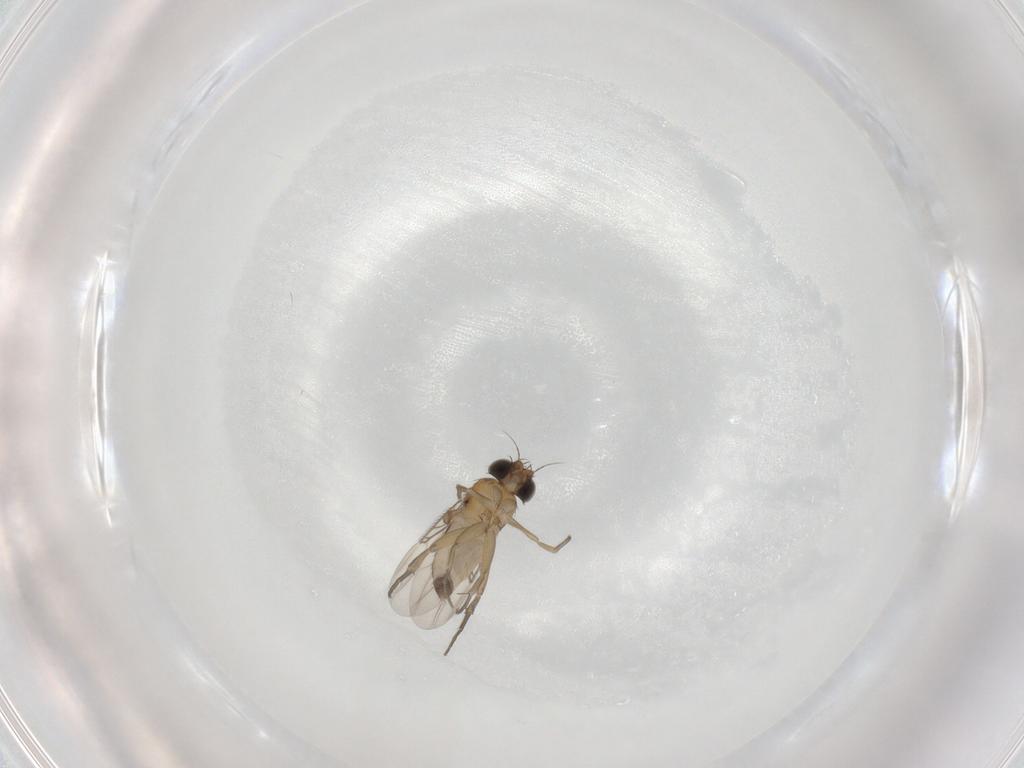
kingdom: Animalia
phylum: Arthropoda
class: Insecta
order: Diptera
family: Phoridae
